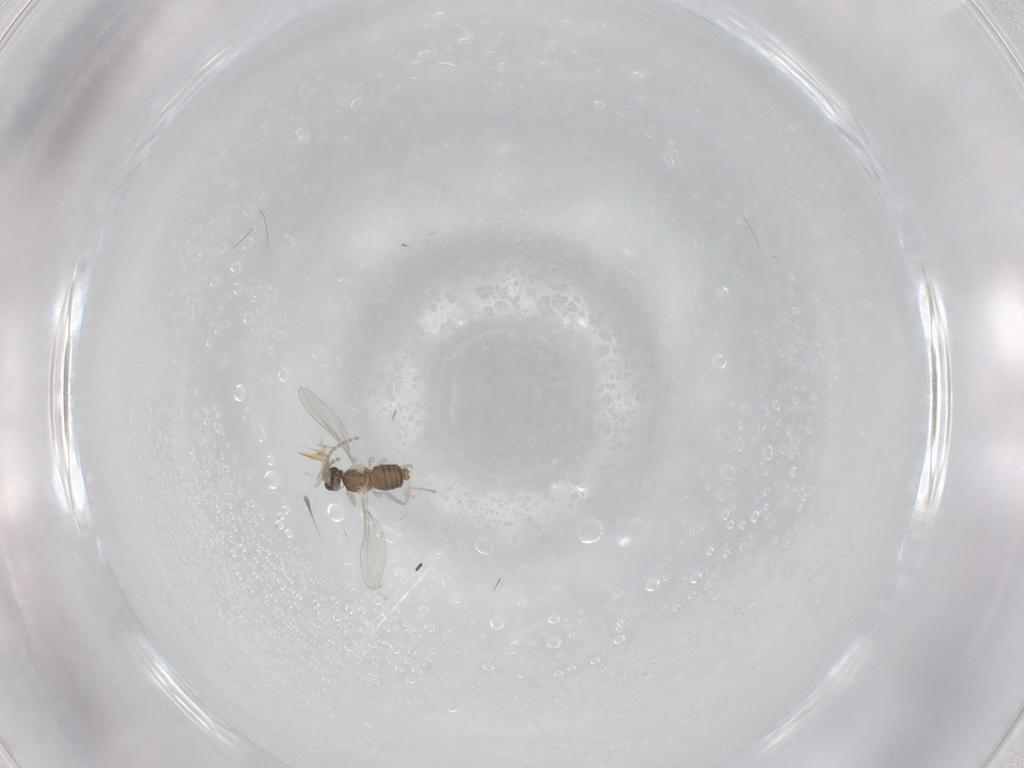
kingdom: Animalia
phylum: Arthropoda
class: Insecta
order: Diptera
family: Cecidomyiidae
